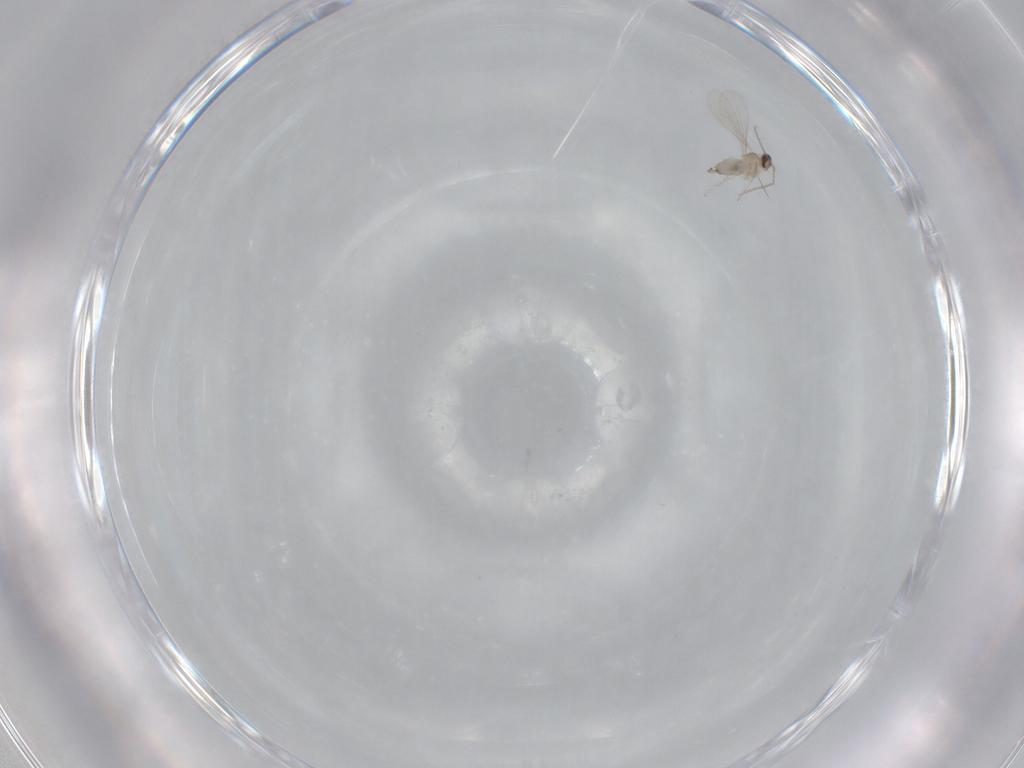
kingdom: Animalia
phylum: Arthropoda
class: Insecta
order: Diptera
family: Cecidomyiidae
